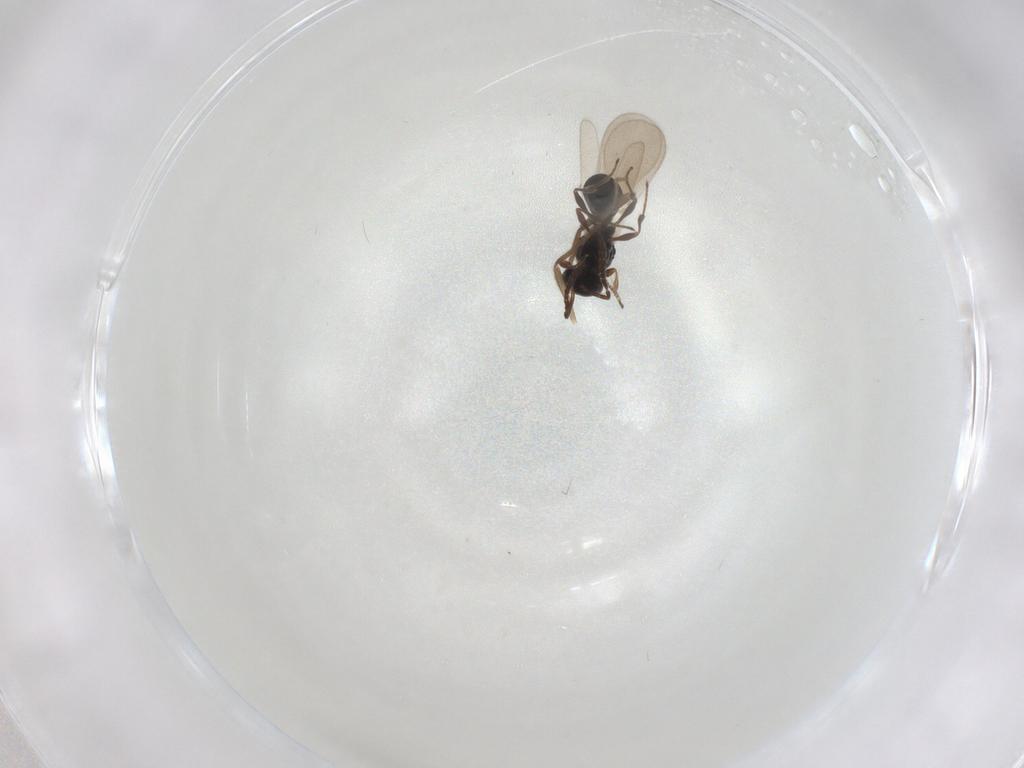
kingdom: Animalia
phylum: Arthropoda
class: Insecta
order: Hymenoptera
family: Platygastridae
